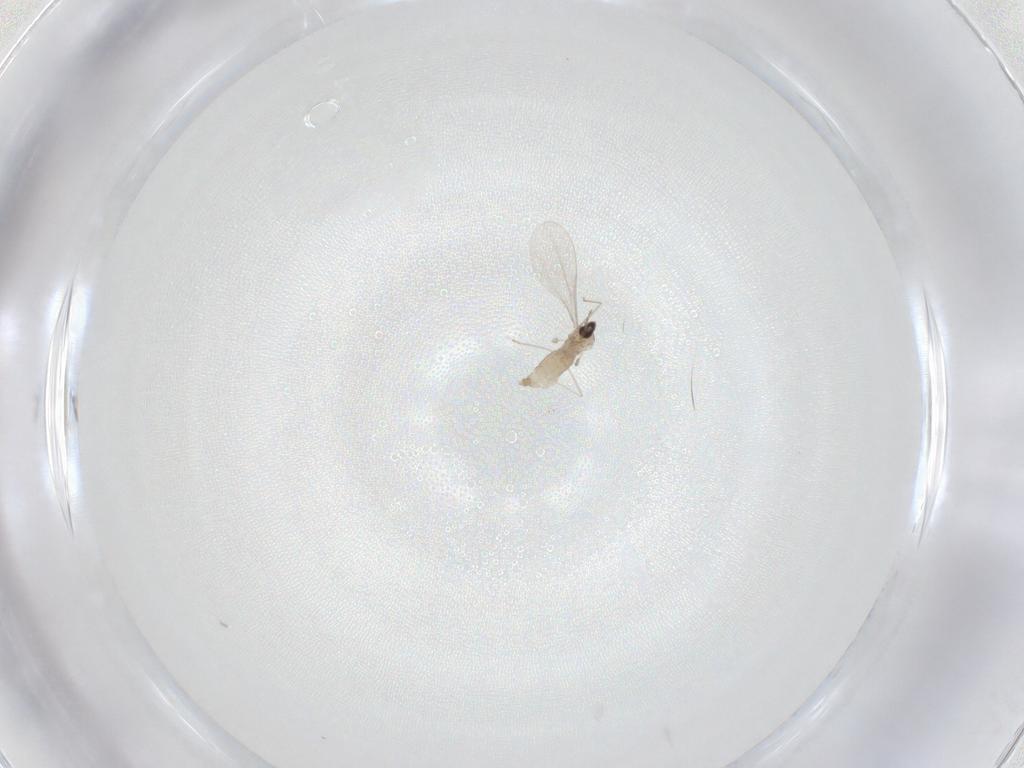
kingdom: Animalia
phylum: Arthropoda
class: Insecta
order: Diptera
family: Cecidomyiidae
